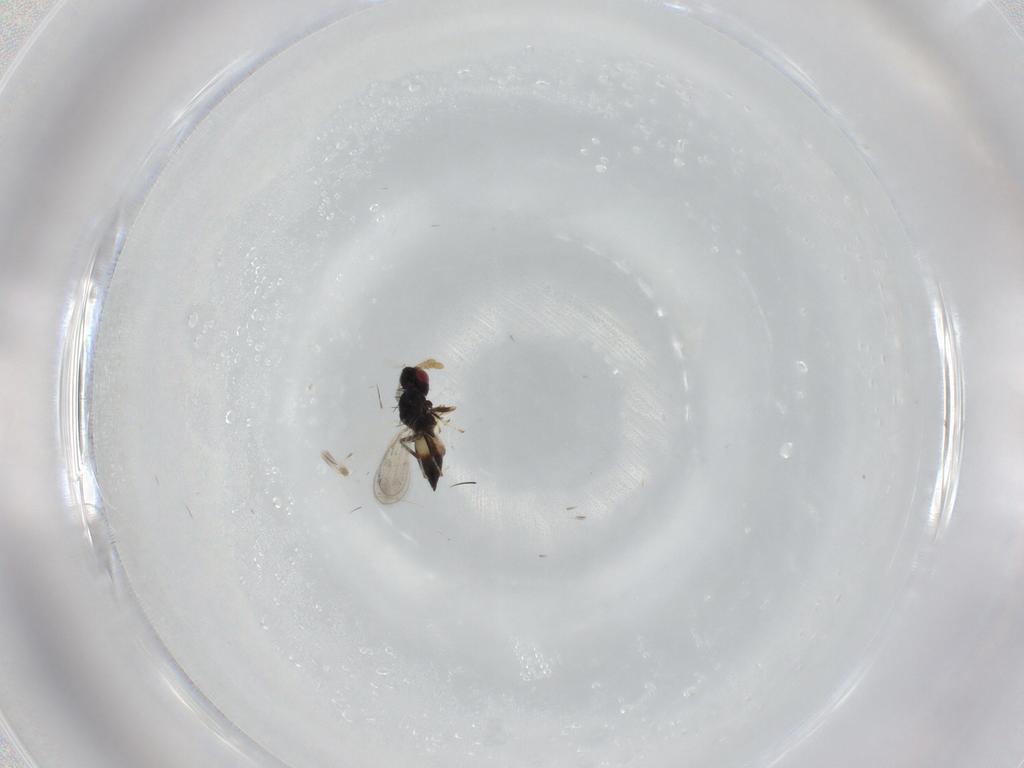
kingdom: Animalia
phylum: Arthropoda
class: Insecta
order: Hymenoptera
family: Eulophidae
